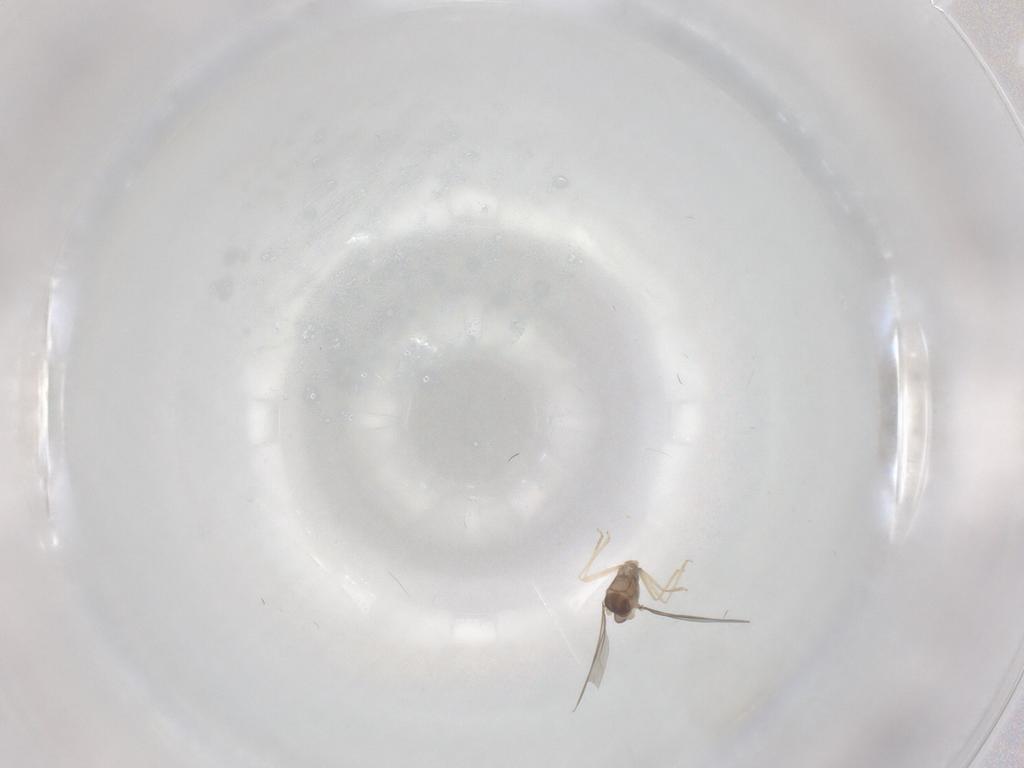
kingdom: Animalia
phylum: Arthropoda
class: Insecta
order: Diptera
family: Cecidomyiidae
